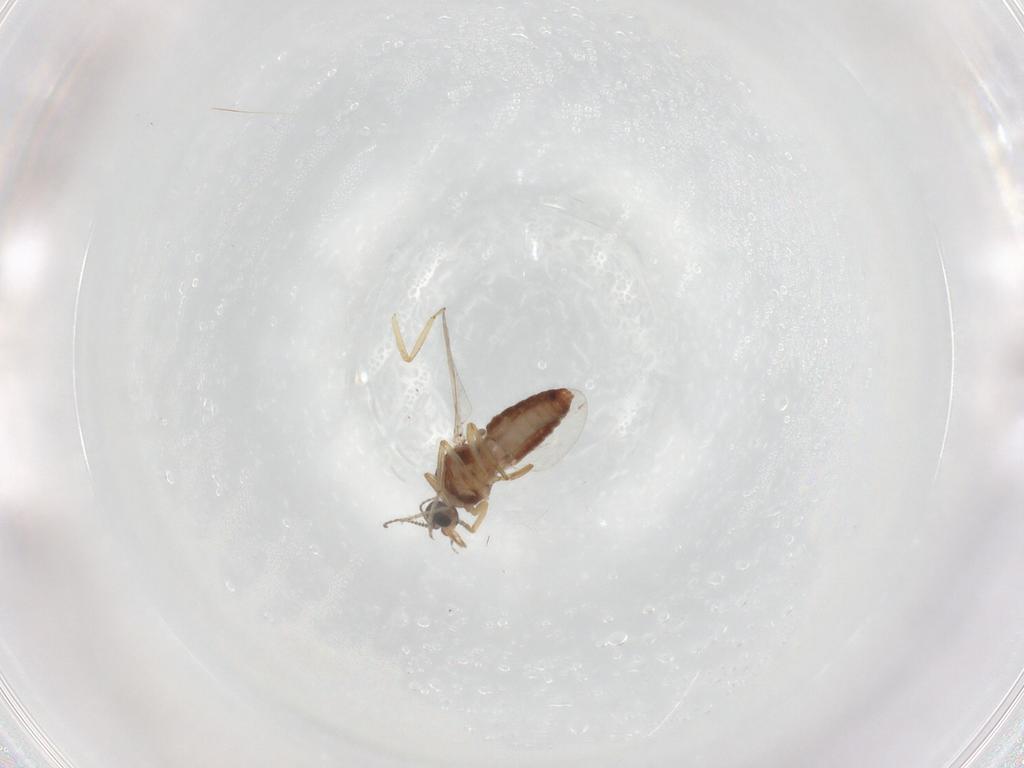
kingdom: Animalia
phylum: Arthropoda
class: Insecta
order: Diptera
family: Ceratopogonidae
